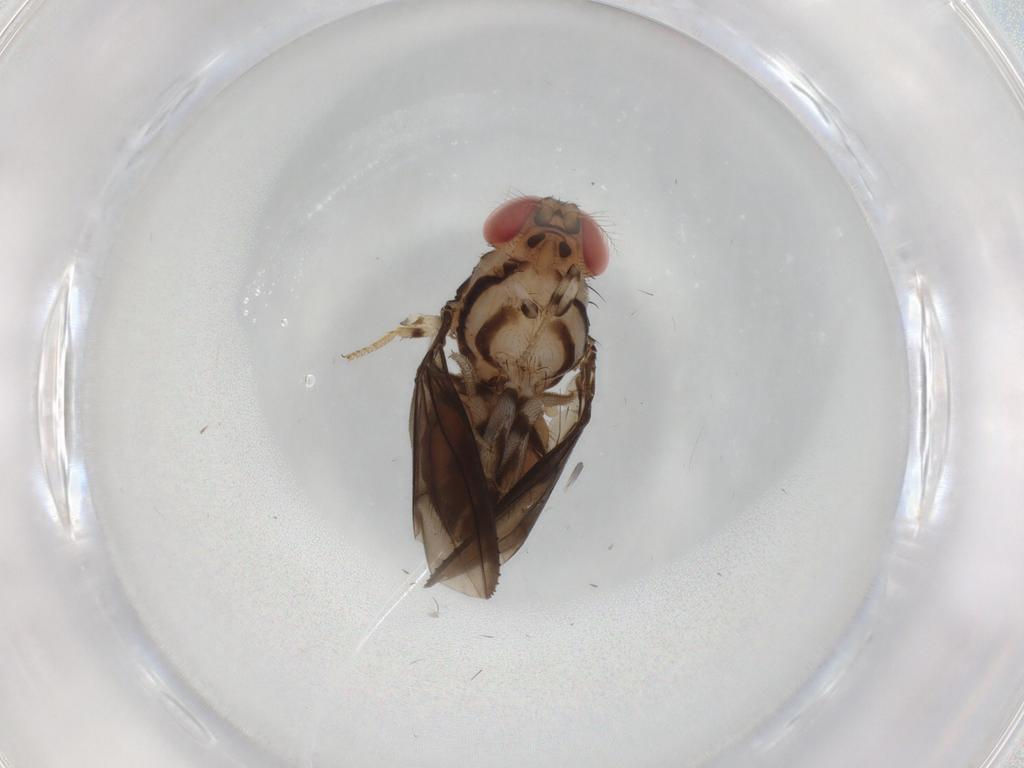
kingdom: Animalia
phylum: Arthropoda
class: Insecta
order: Diptera
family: Drosophilidae
